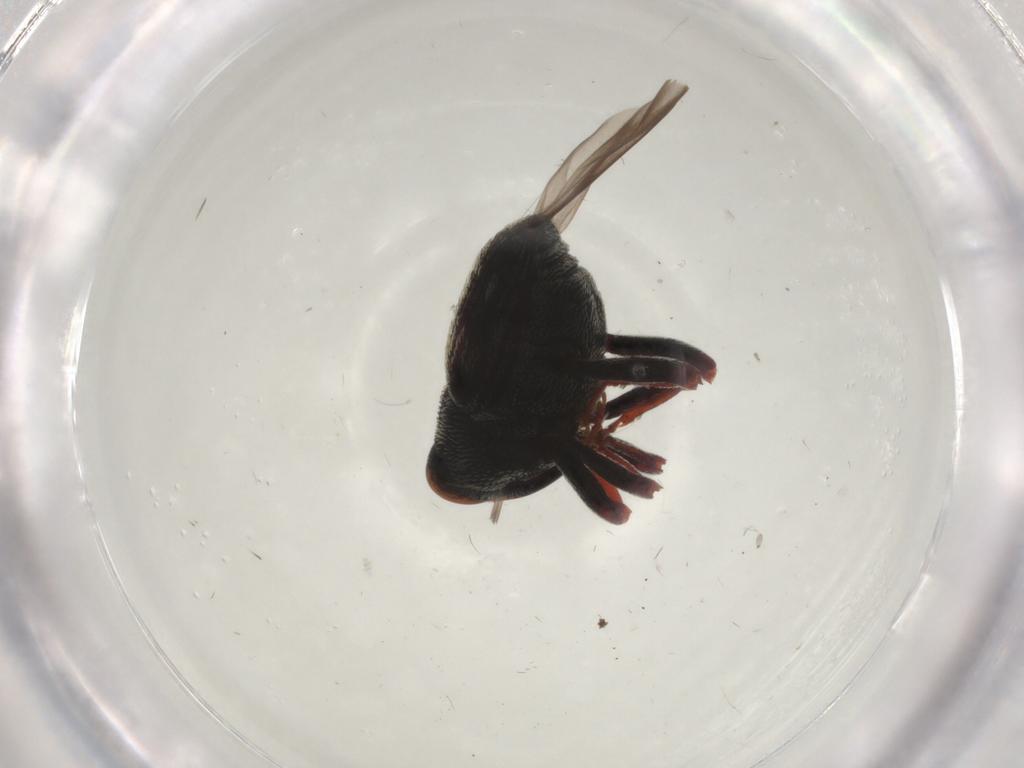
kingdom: Animalia
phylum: Arthropoda
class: Insecta
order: Coleoptera
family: Curculionidae
